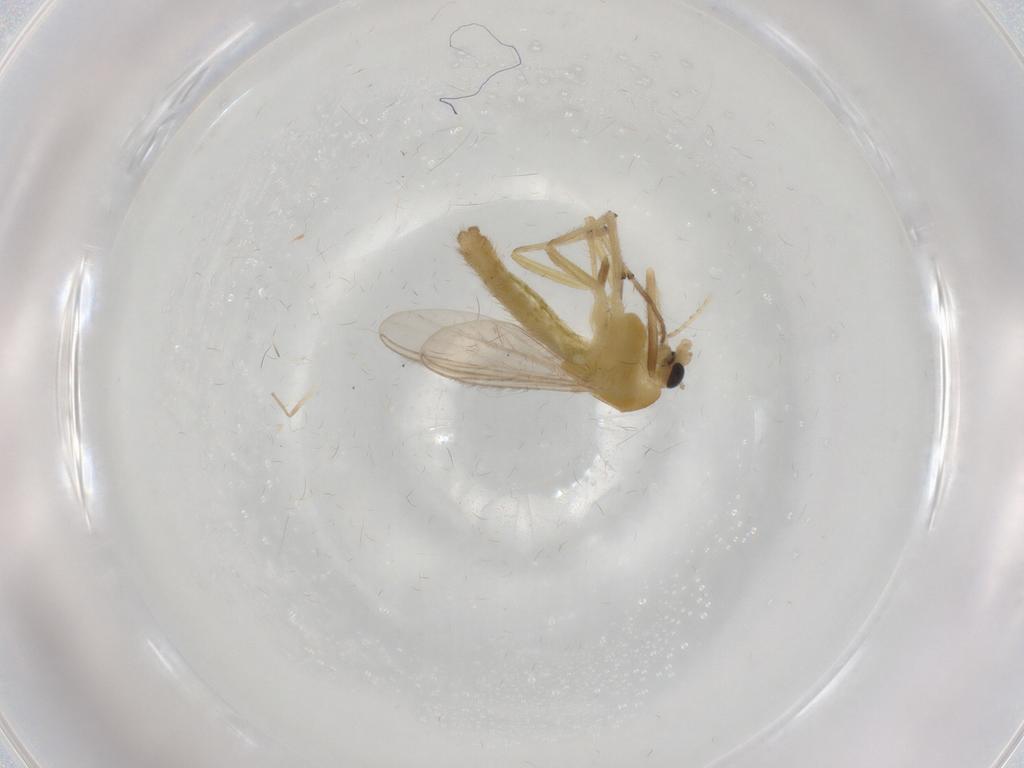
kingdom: Animalia
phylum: Arthropoda
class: Insecta
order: Diptera
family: Chironomidae
